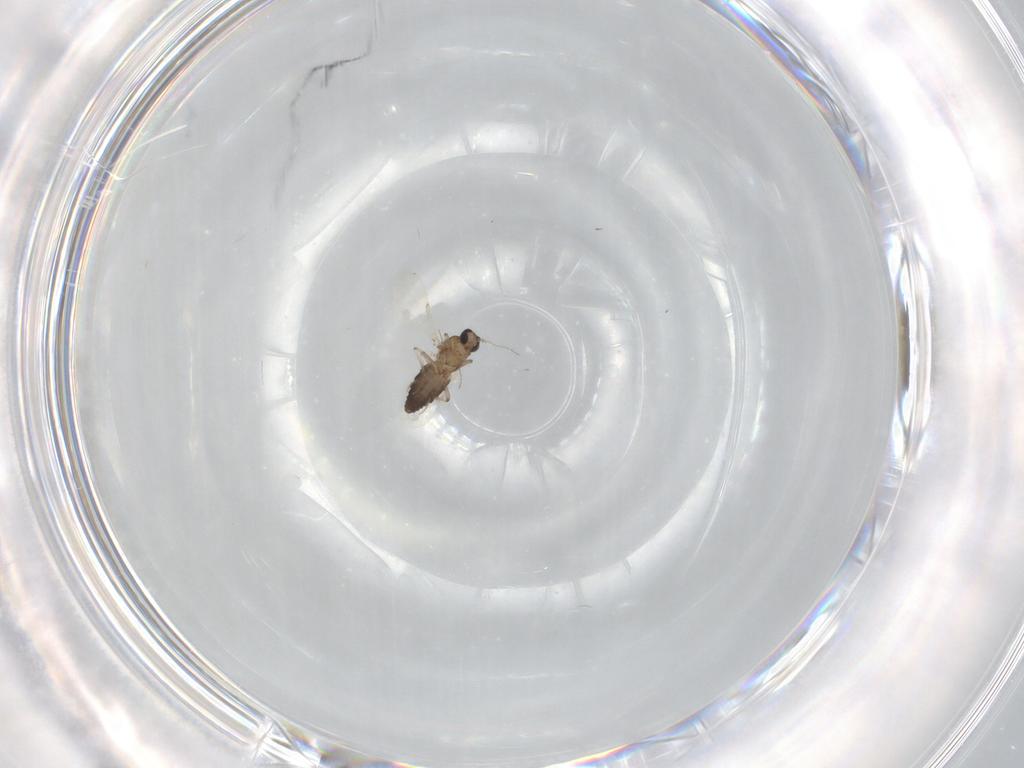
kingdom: Animalia
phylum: Arthropoda
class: Insecta
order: Diptera
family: Ceratopogonidae
